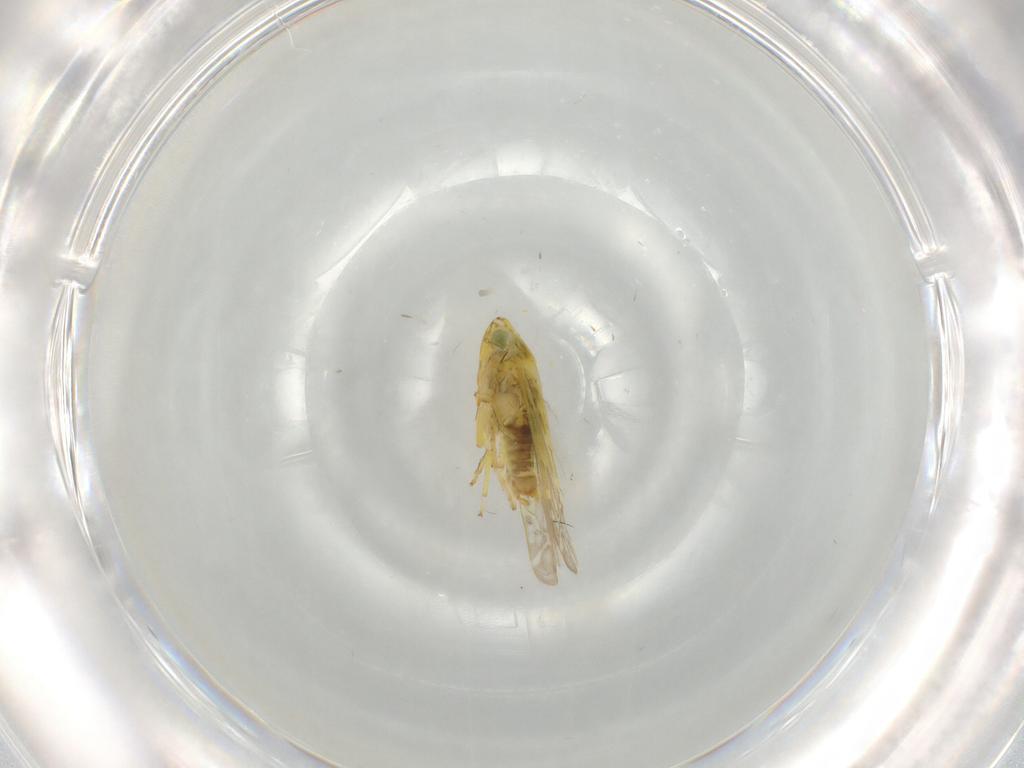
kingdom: Animalia
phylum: Arthropoda
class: Insecta
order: Hemiptera
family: Cicadellidae
